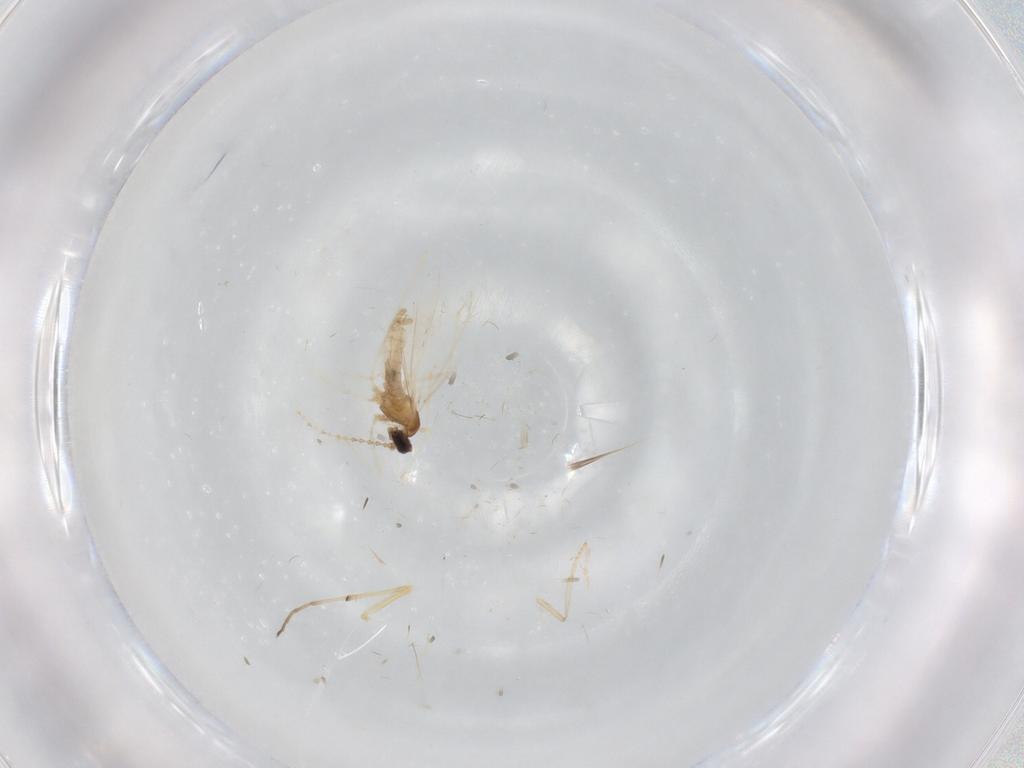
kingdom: Animalia
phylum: Arthropoda
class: Insecta
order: Diptera
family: Cecidomyiidae
